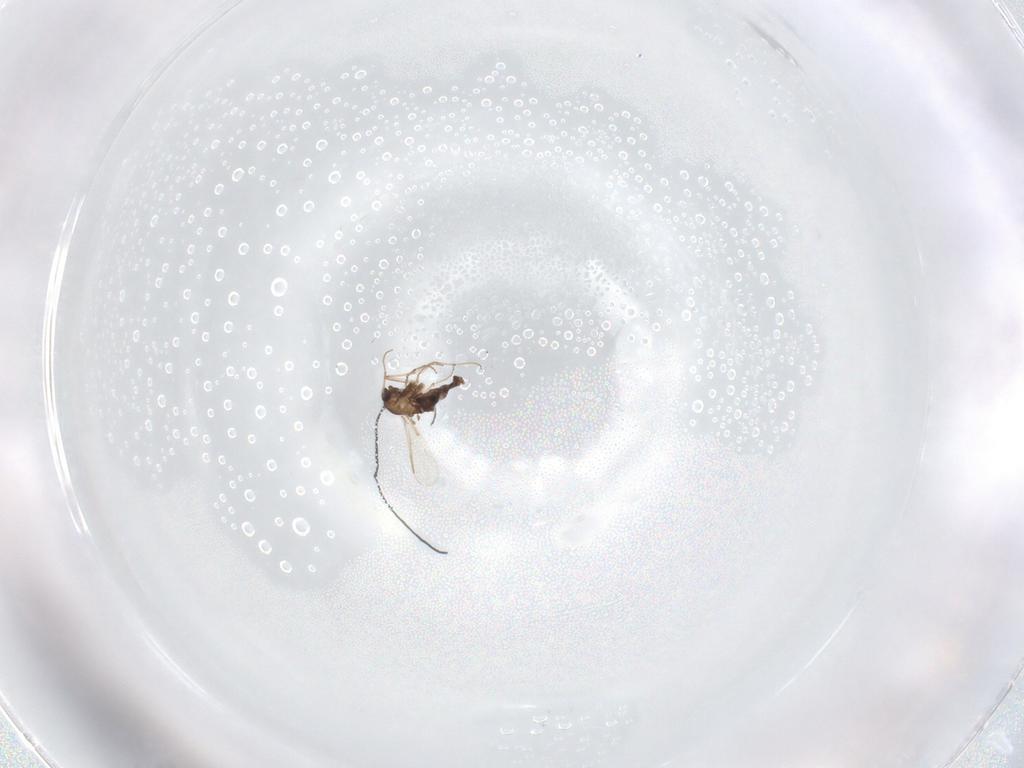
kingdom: Animalia
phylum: Arthropoda
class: Insecta
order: Diptera
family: Chironomidae
